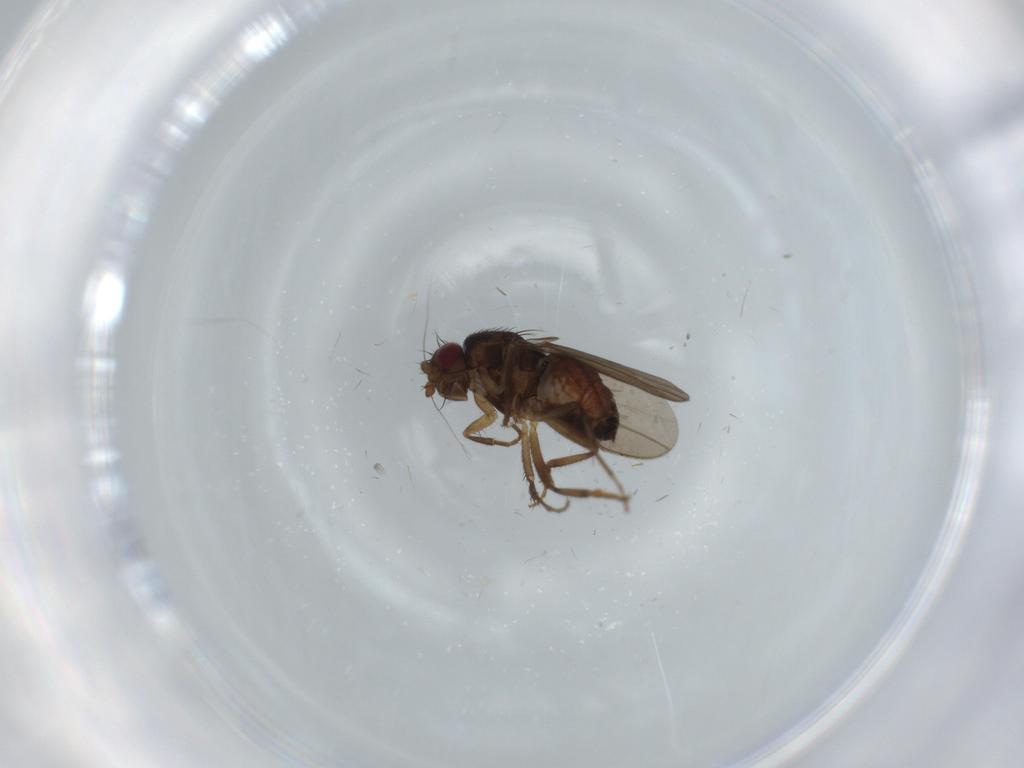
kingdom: Animalia
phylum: Arthropoda
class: Insecta
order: Diptera
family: Sphaeroceridae
